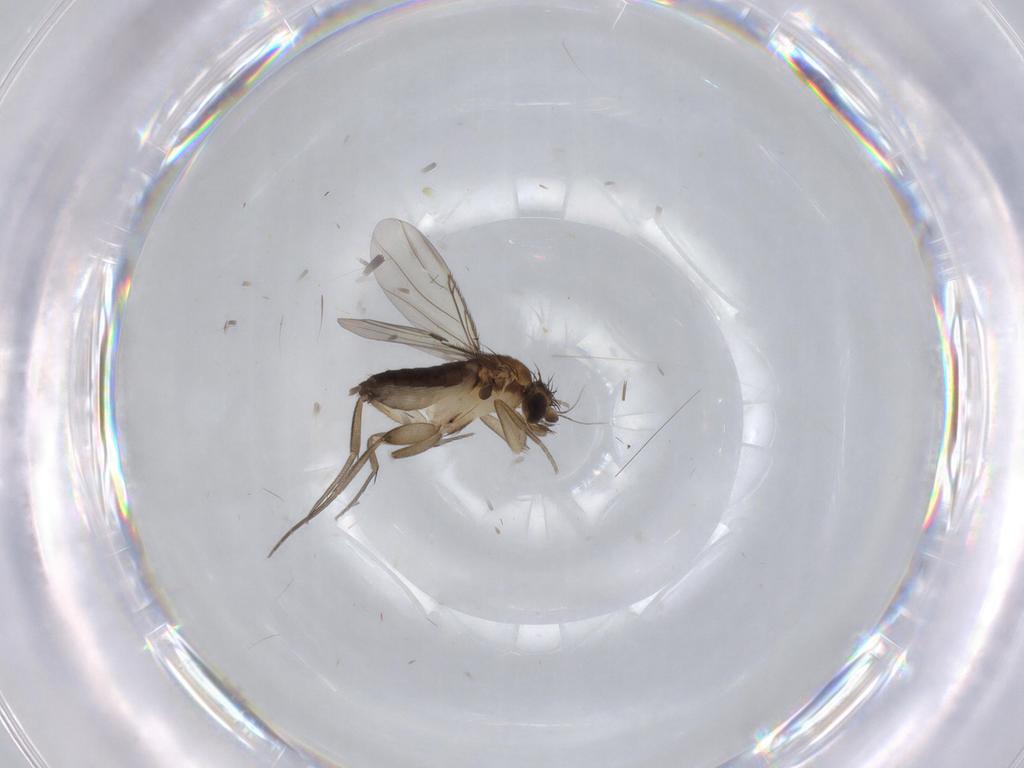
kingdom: Animalia
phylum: Arthropoda
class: Insecta
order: Diptera
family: Phoridae
